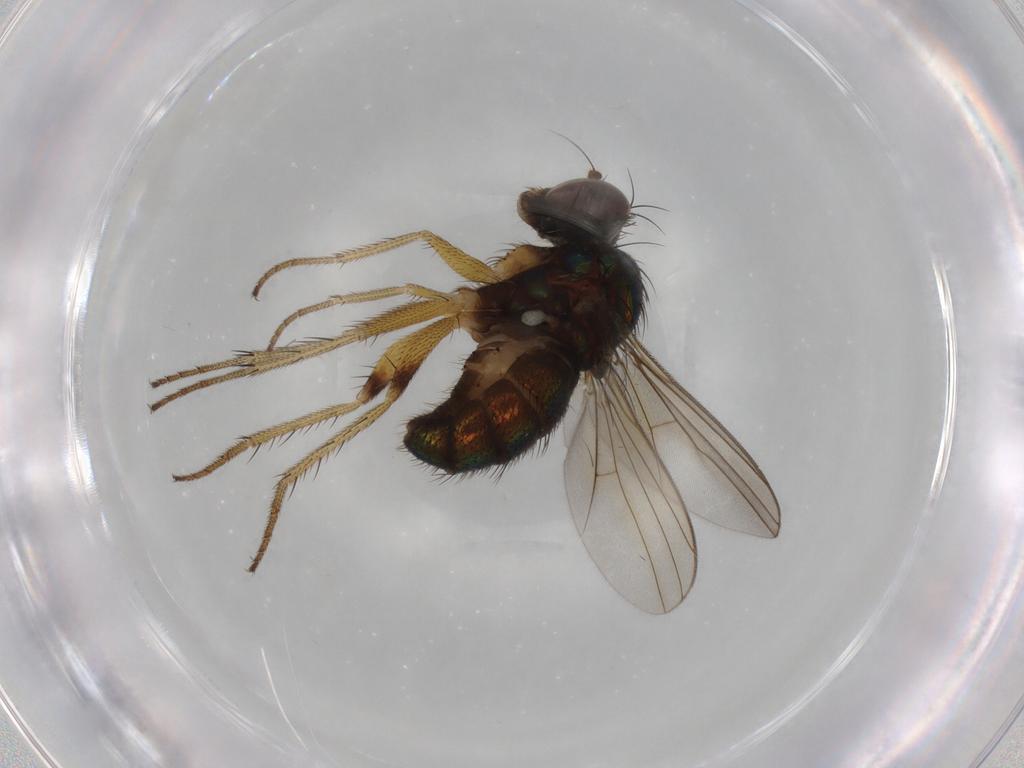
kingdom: Animalia
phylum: Arthropoda
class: Insecta
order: Diptera
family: Dolichopodidae
